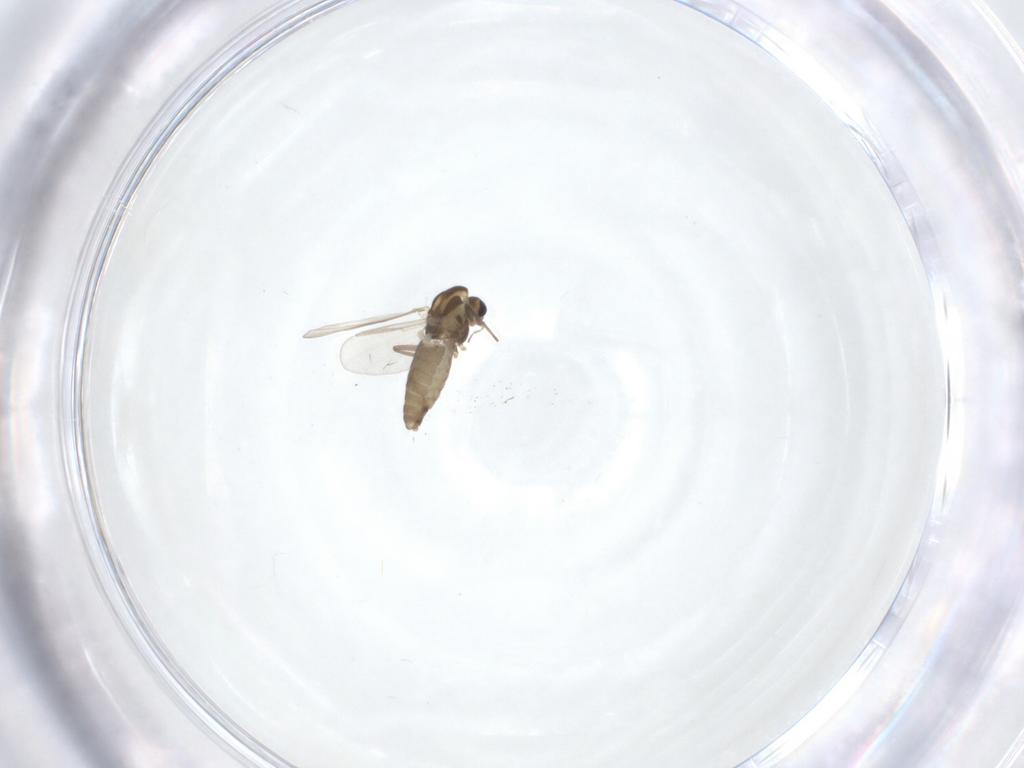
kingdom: Animalia
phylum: Arthropoda
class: Insecta
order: Diptera
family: Chironomidae
